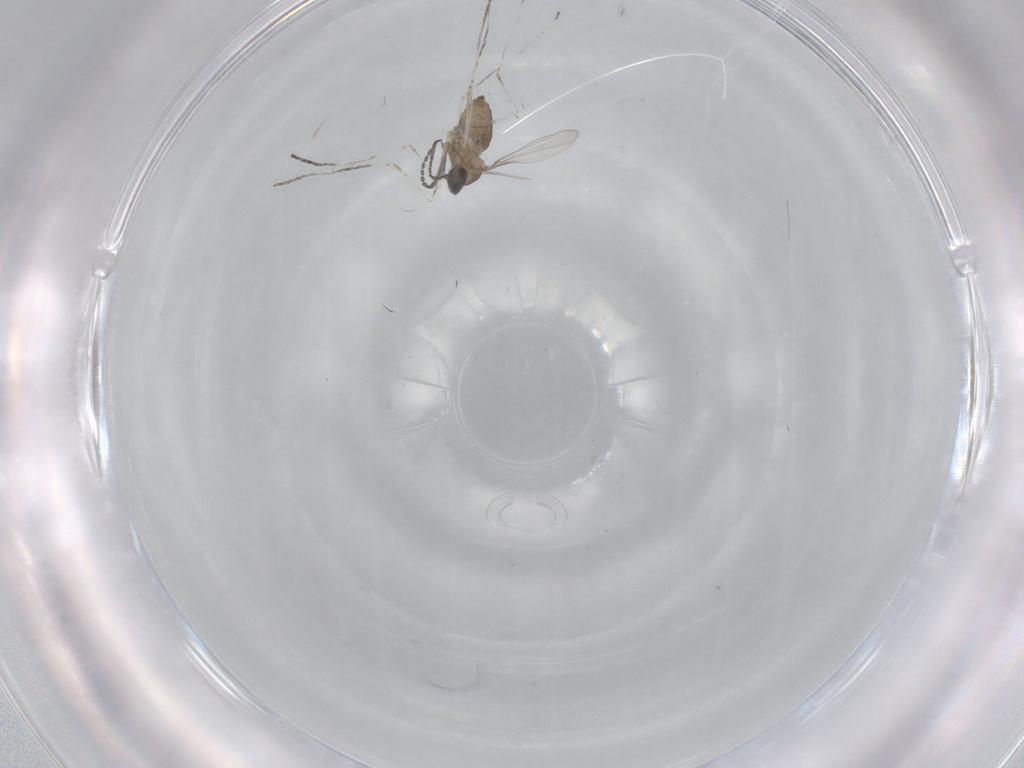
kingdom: Animalia
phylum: Arthropoda
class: Insecta
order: Diptera
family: Cecidomyiidae
